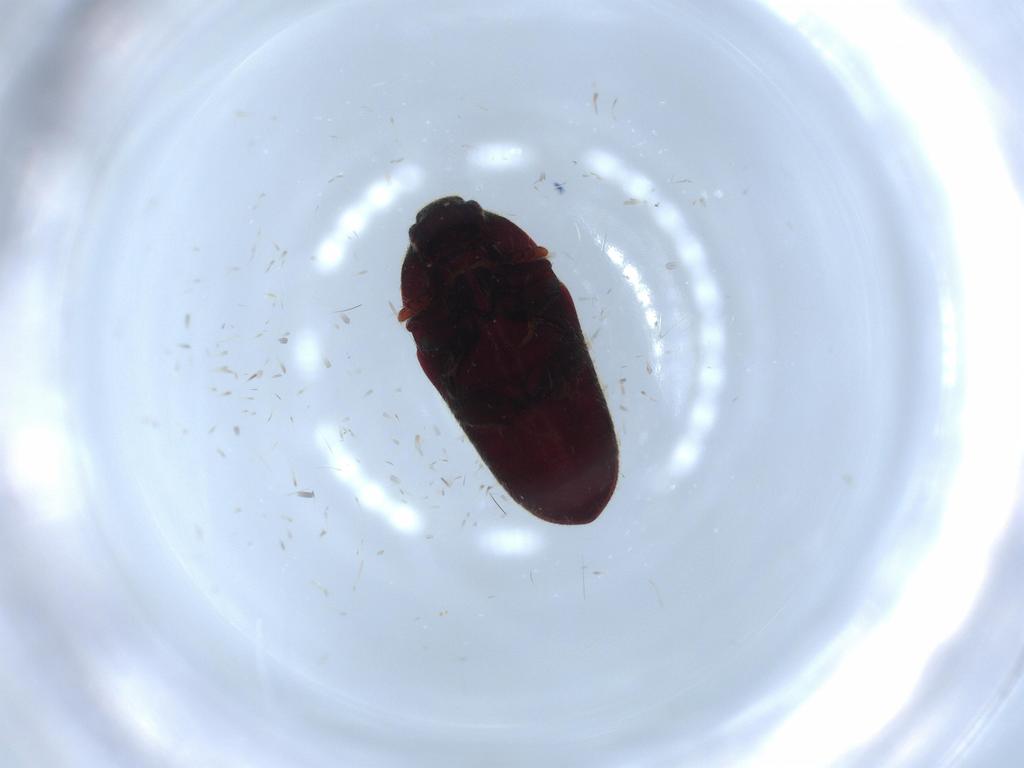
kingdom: Animalia
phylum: Arthropoda
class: Insecta
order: Coleoptera
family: Throscidae
